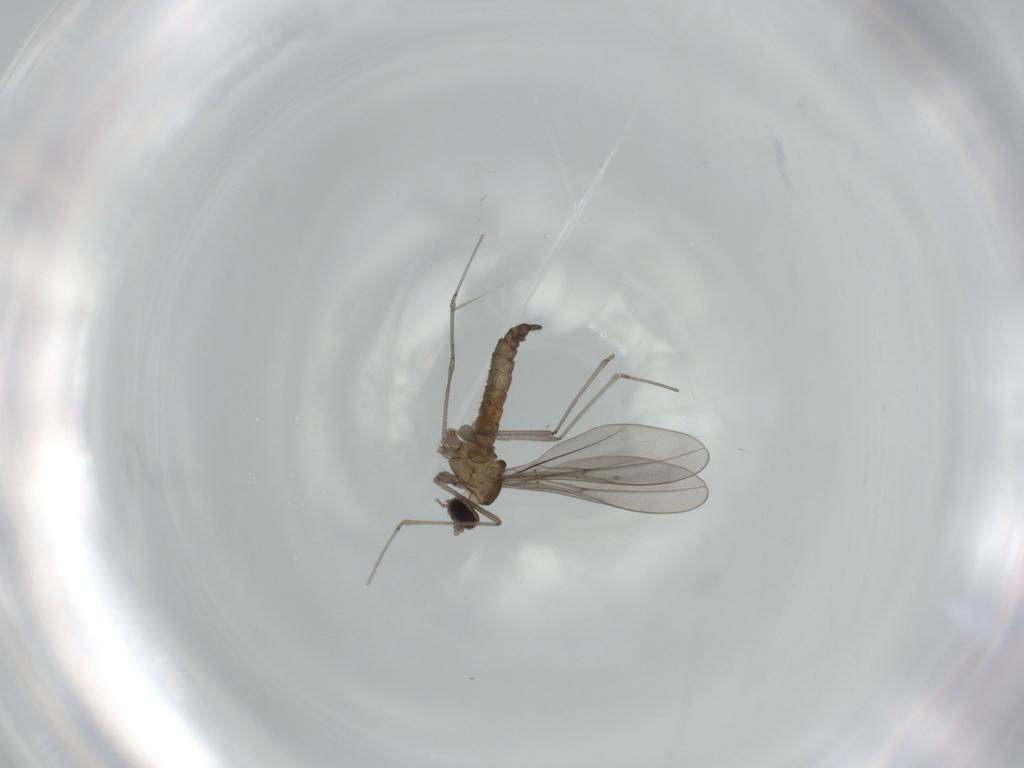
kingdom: Animalia
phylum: Arthropoda
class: Insecta
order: Diptera
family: Cecidomyiidae
